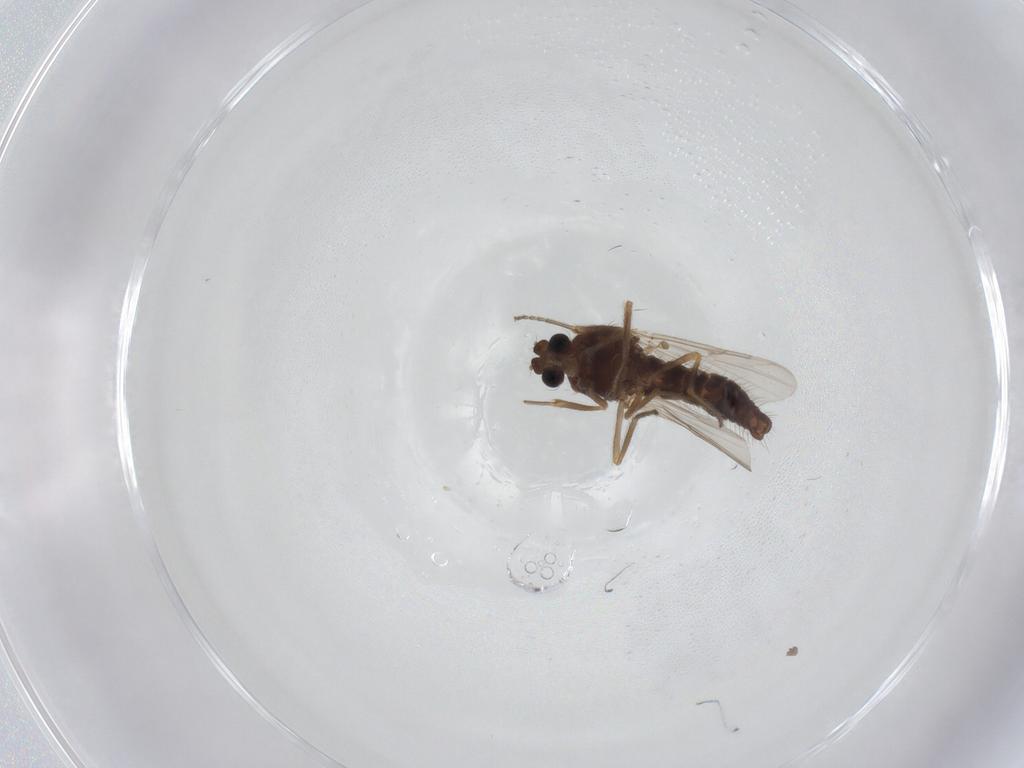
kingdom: Animalia
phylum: Arthropoda
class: Insecta
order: Diptera
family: Ceratopogonidae
